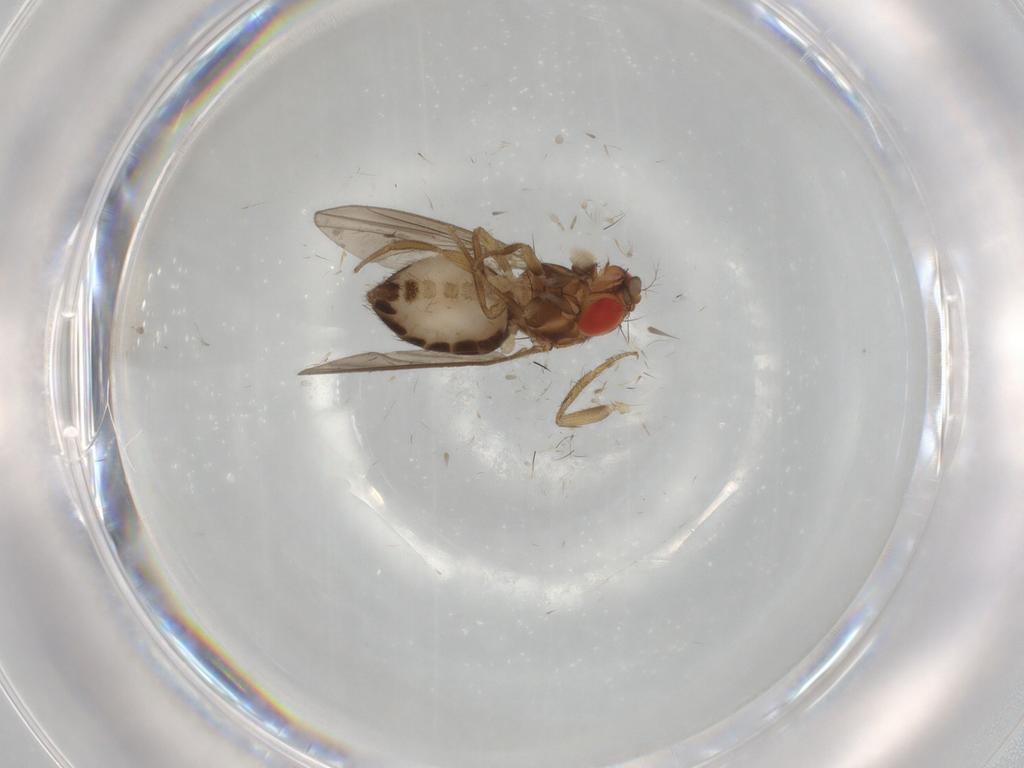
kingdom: Animalia
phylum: Arthropoda
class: Insecta
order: Diptera
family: Drosophilidae
